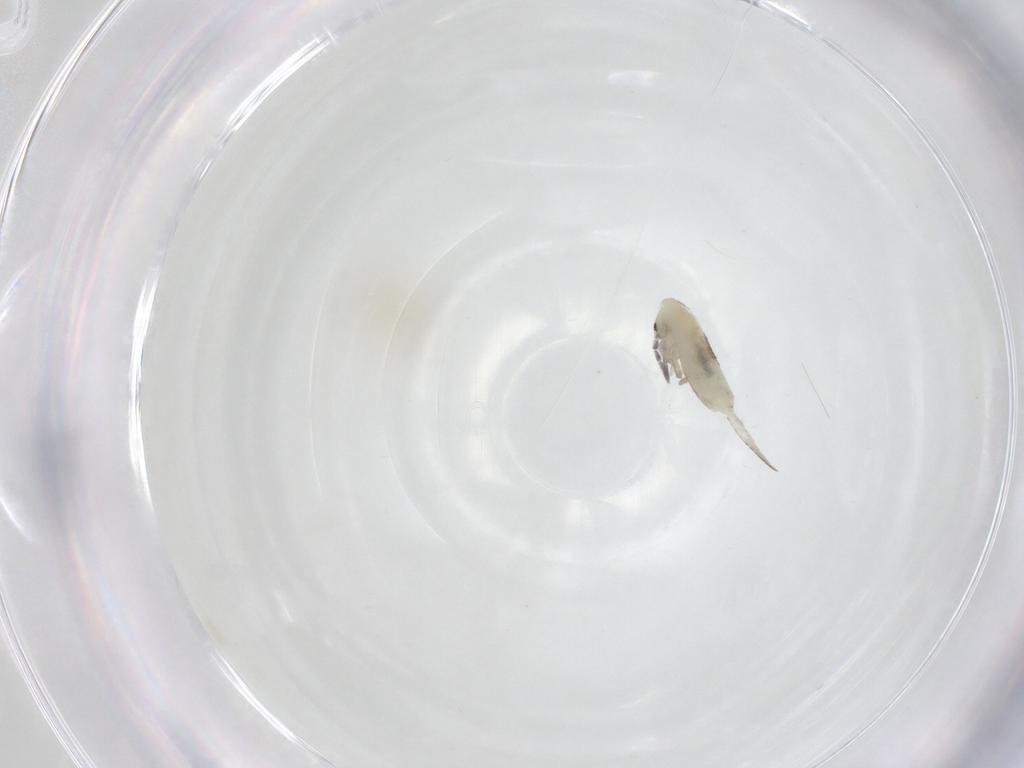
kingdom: Animalia
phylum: Arthropoda
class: Collembola
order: Entomobryomorpha
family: Entomobryidae
